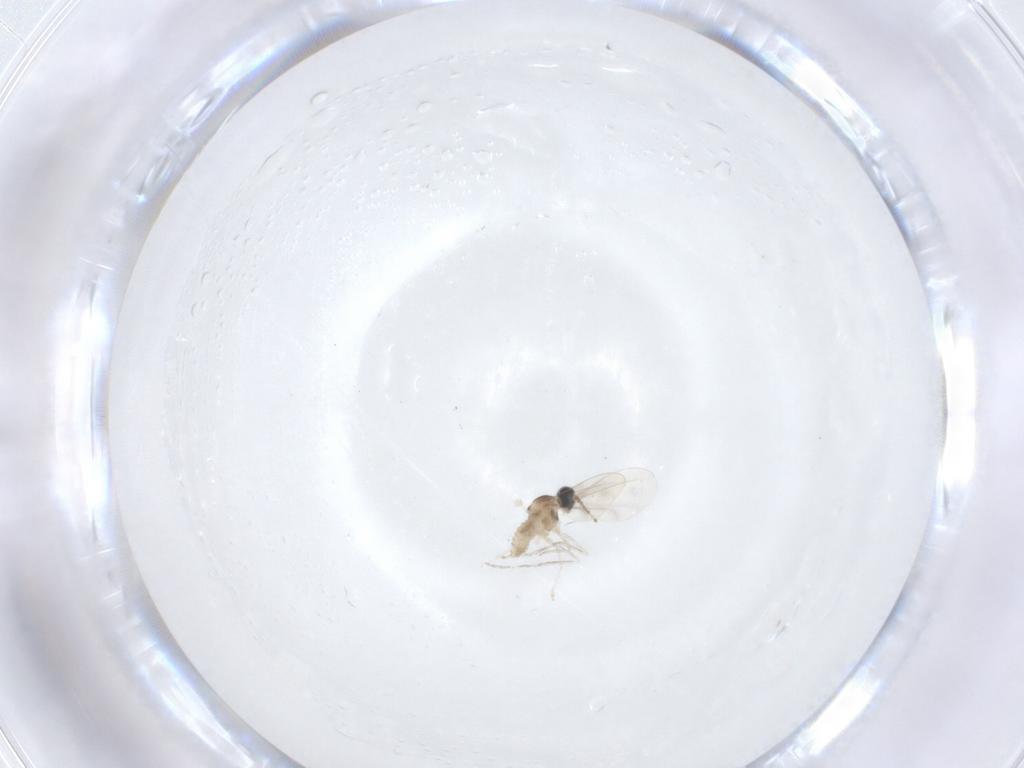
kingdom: Animalia
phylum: Arthropoda
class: Insecta
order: Diptera
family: Cecidomyiidae
